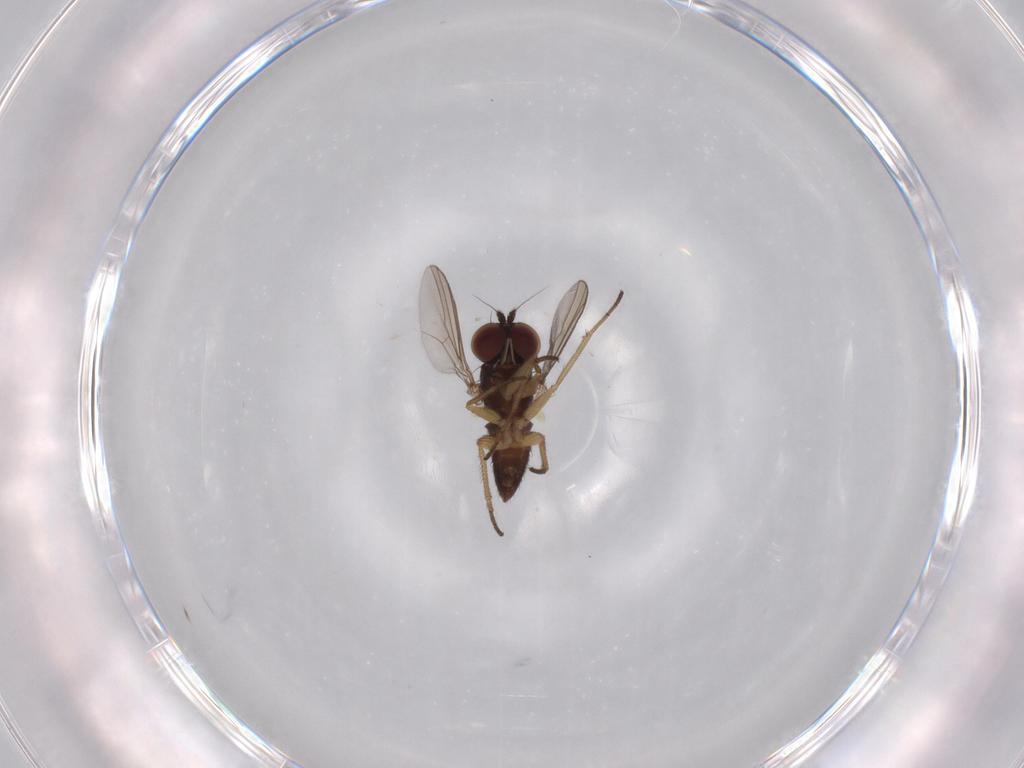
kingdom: Animalia
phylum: Arthropoda
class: Insecta
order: Diptera
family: Dolichopodidae
